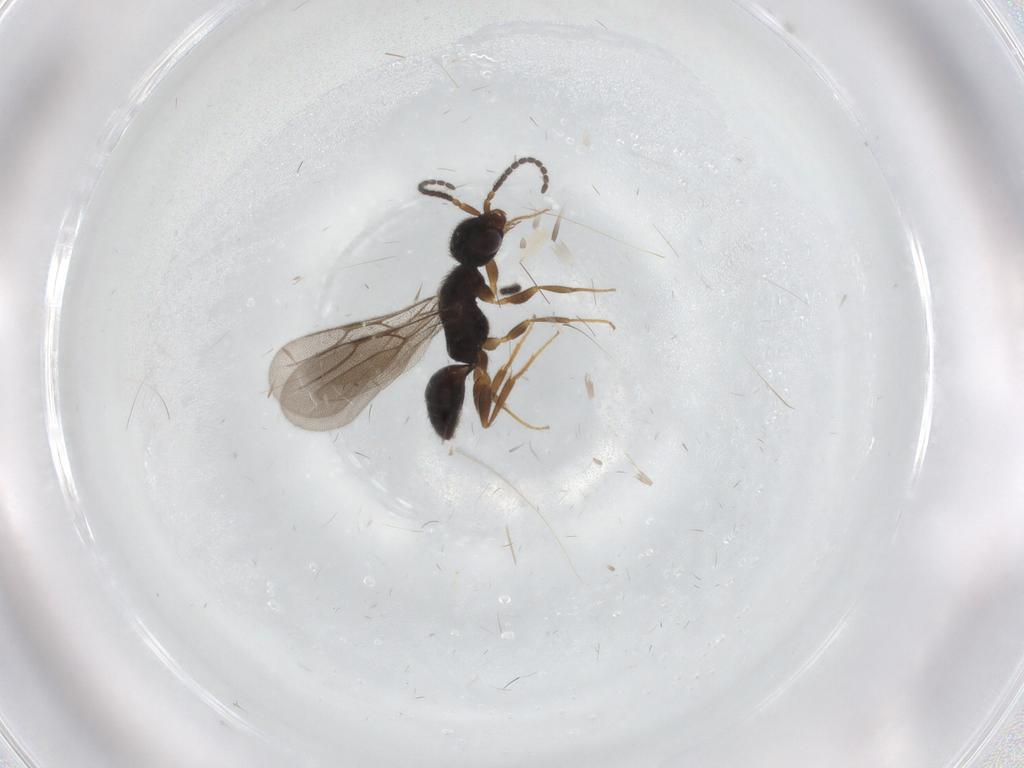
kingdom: Animalia
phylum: Arthropoda
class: Insecta
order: Hymenoptera
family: Bethylidae
